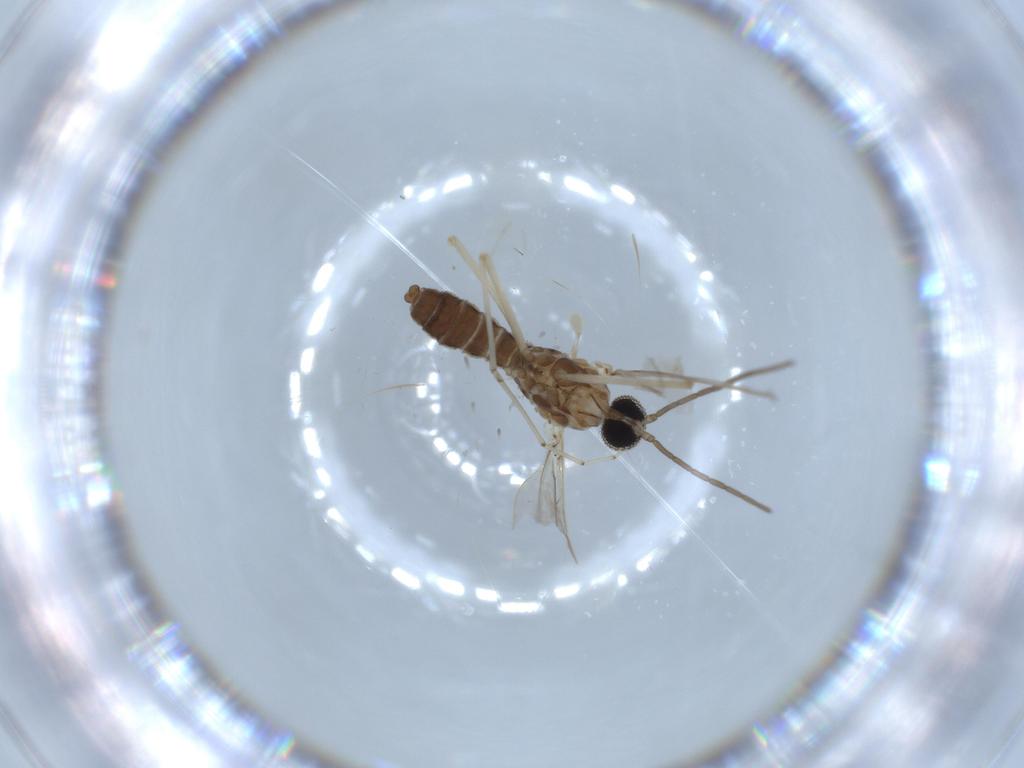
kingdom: Animalia
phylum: Arthropoda
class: Insecta
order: Diptera
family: Cecidomyiidae
